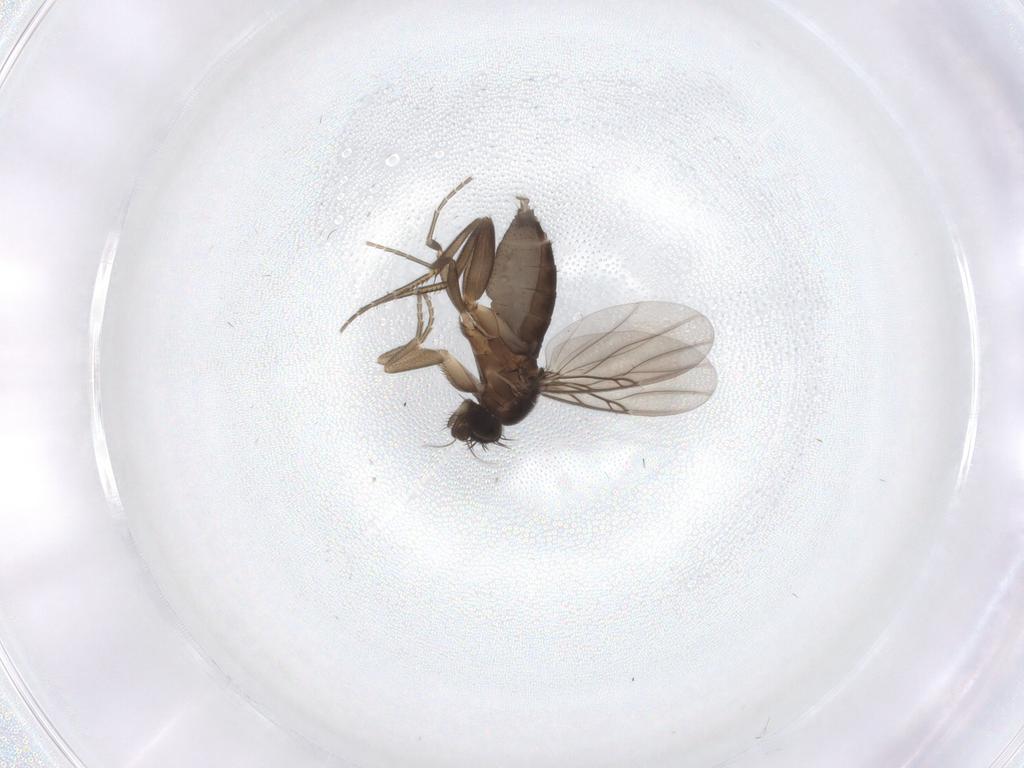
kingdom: Animalia
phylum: Arthropoda
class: Insecta
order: Diptera
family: Phoridae
